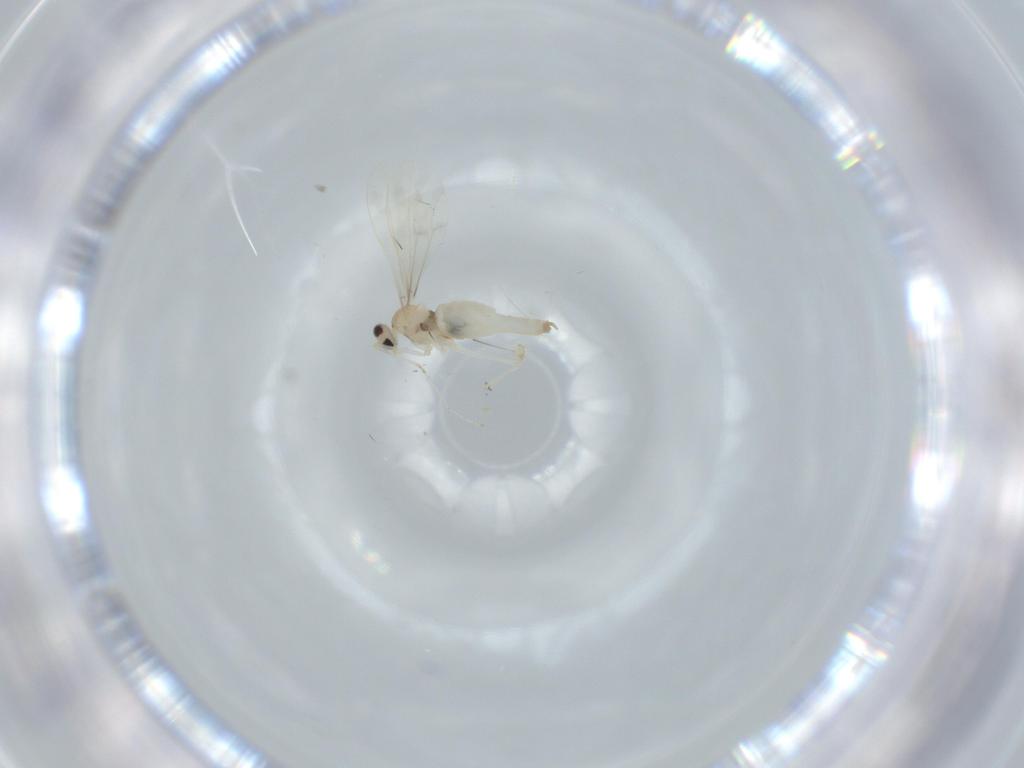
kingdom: Animalia
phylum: Arthropoda
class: Insecta
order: Diptera
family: Cecidomyiidae
